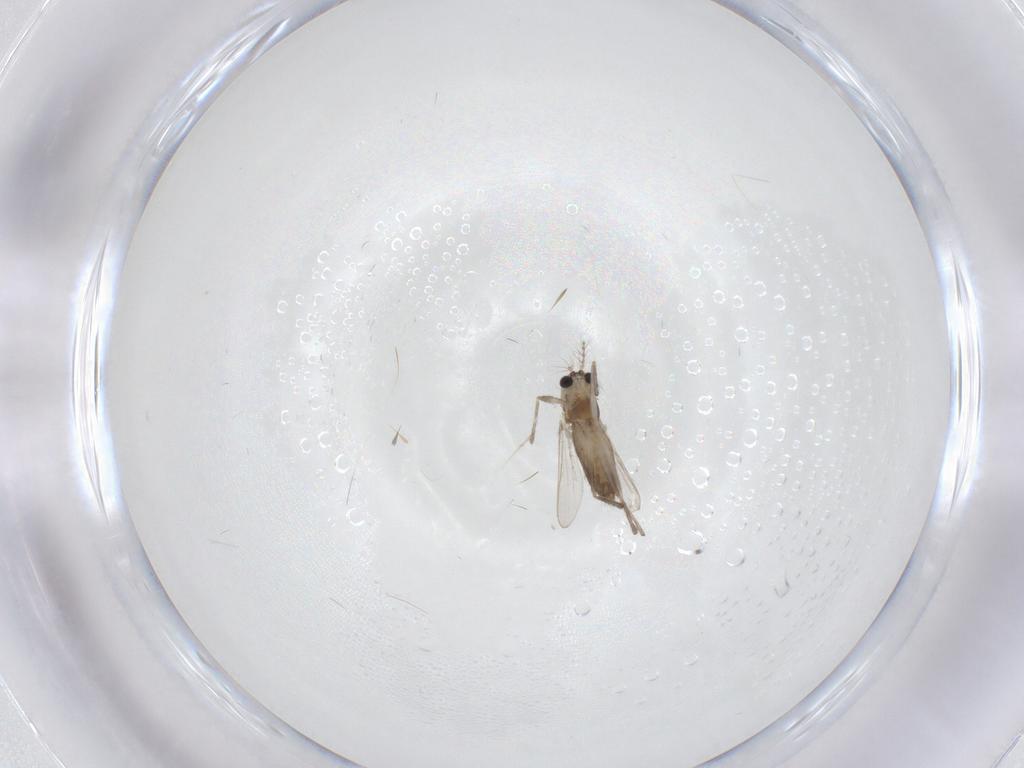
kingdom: Animalia
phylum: Arthropoda
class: Insecta
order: Diptera
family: Chironomidae
